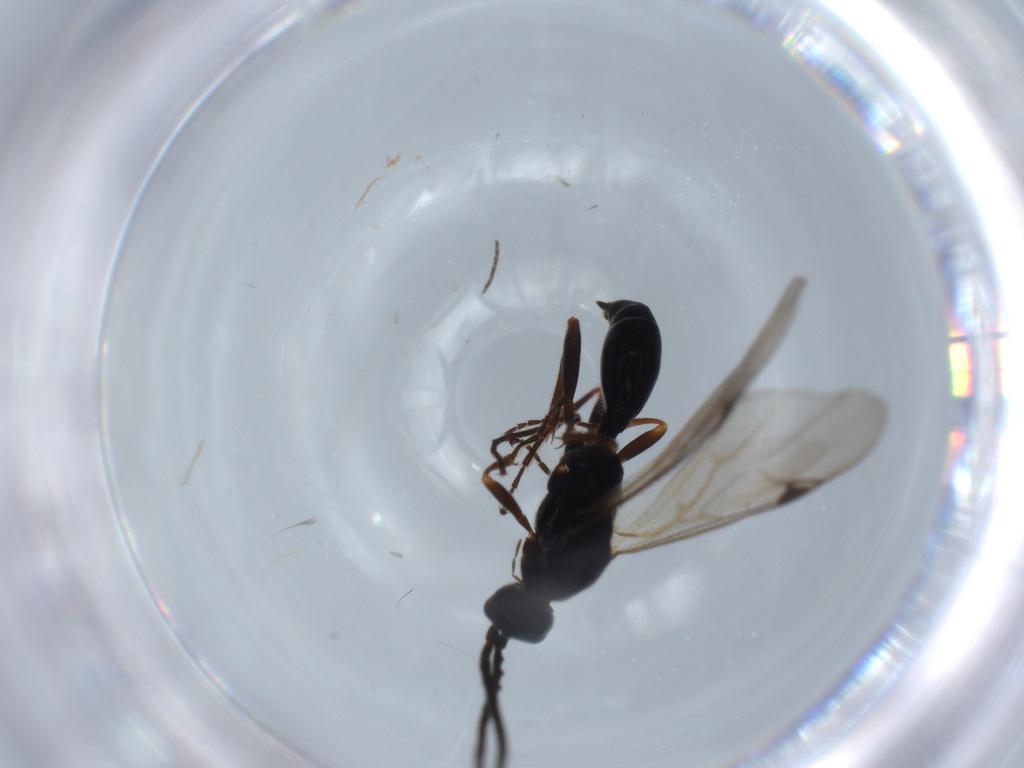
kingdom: Animalia
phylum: Arthropoda
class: Insecta
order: Hymenoptera
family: Proctotrupidae
